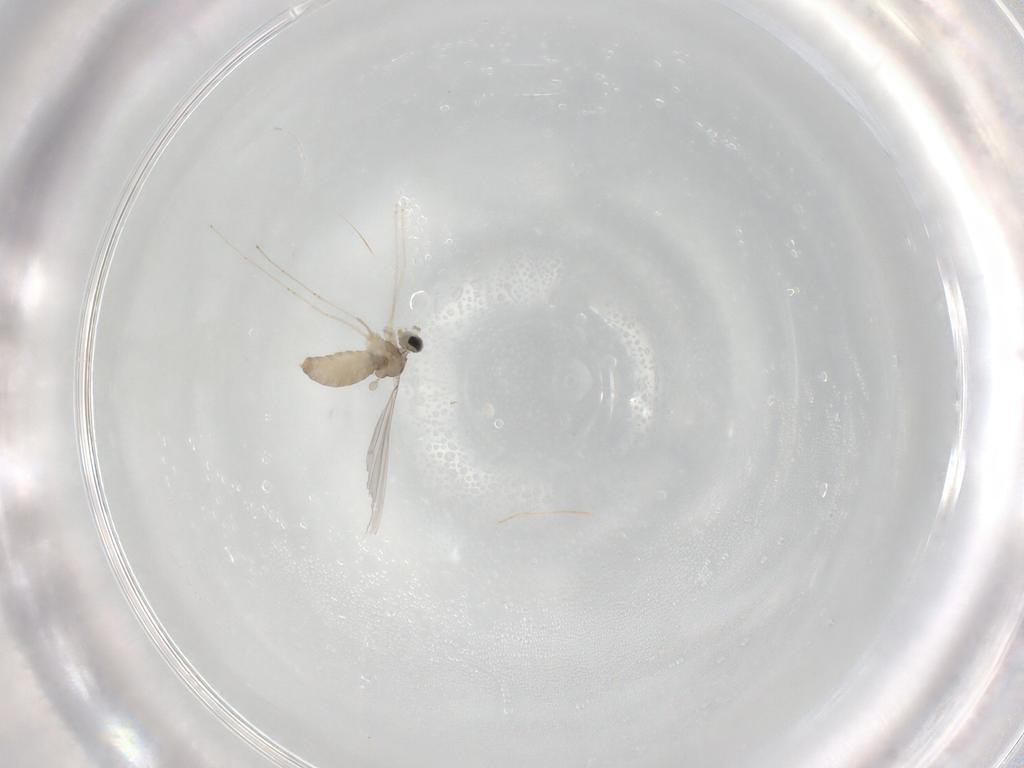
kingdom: Animalia
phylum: Arthropoda
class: Insecta
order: Diptera
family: Cecidomyiidae
